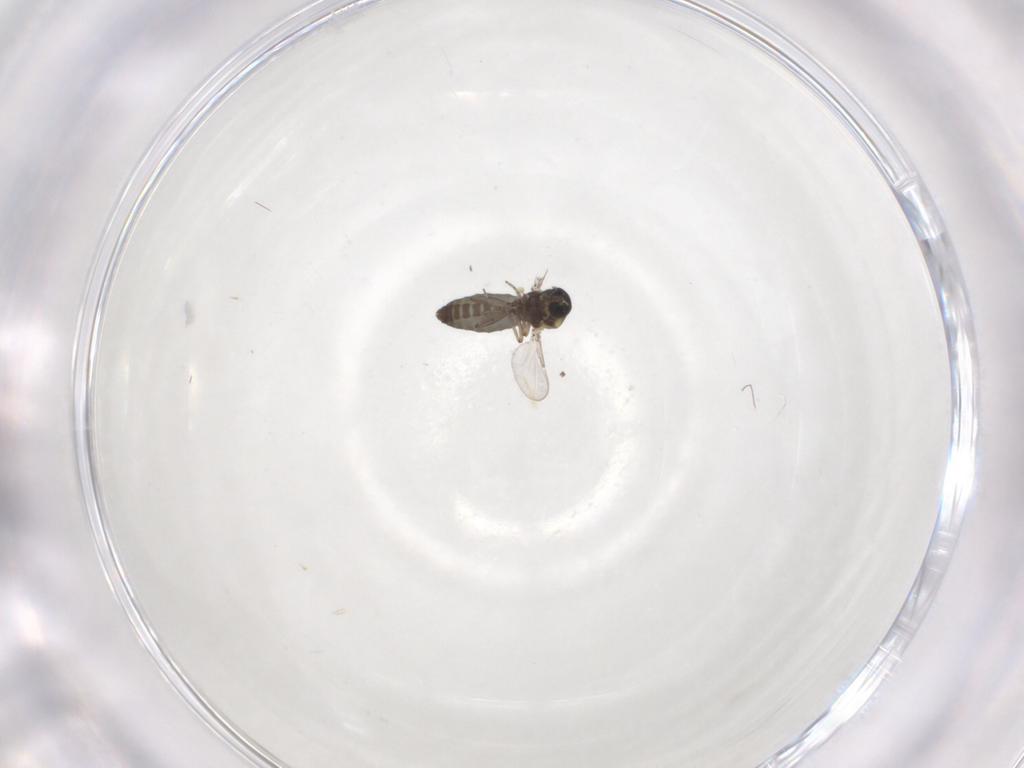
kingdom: Animalia
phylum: Arthropoda
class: Insecta
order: Diptera
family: Ceratopogonidae
